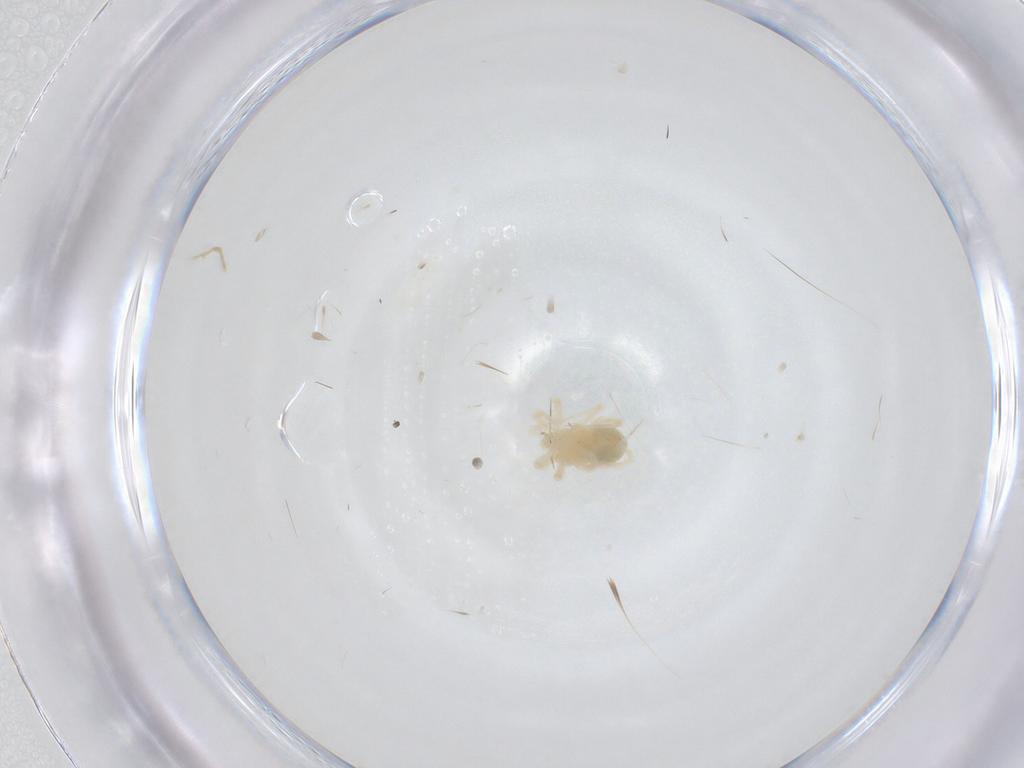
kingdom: Animalia
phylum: Arthropoda
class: Arachnida
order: Trombidiformes
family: Anystidae
